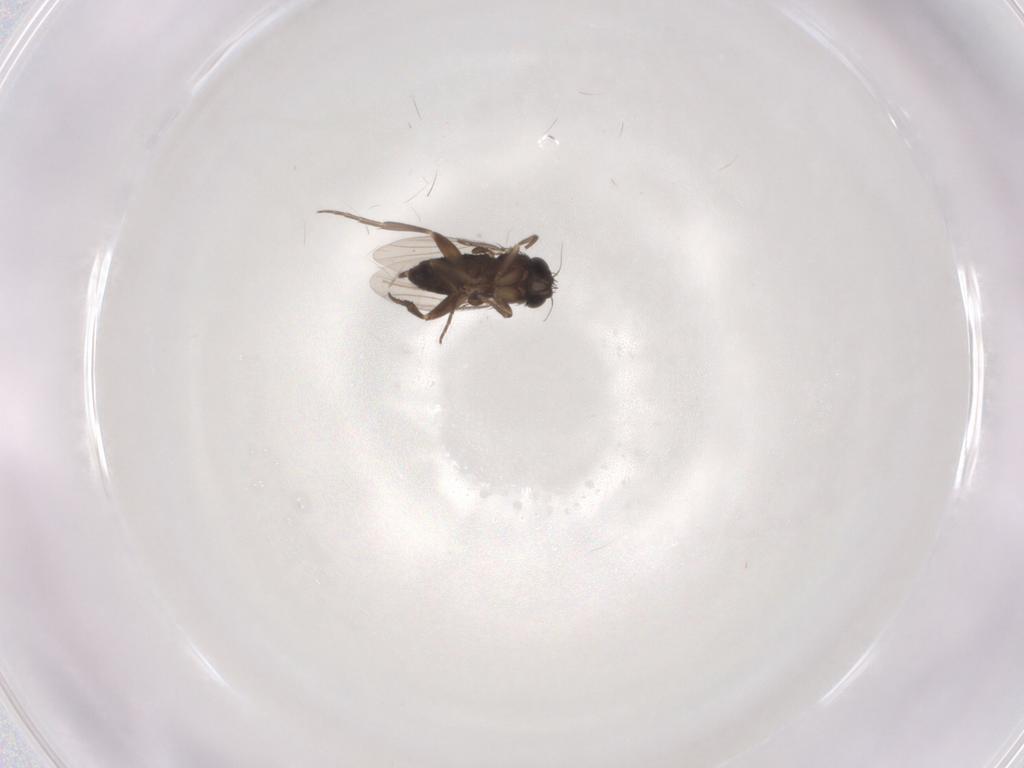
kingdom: Animalia
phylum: Arthropoda
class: Insecta
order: Diptera
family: Phoridae
